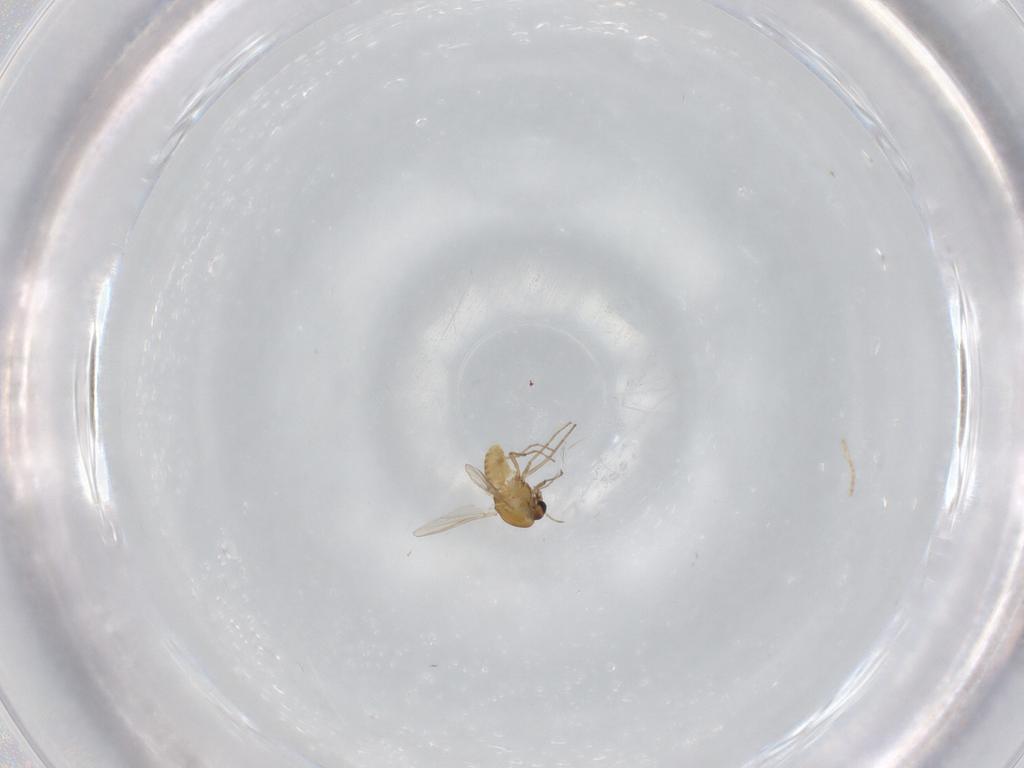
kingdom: Animalia
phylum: Arthropoda
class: Insecta
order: Diptera
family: Chironomidae
